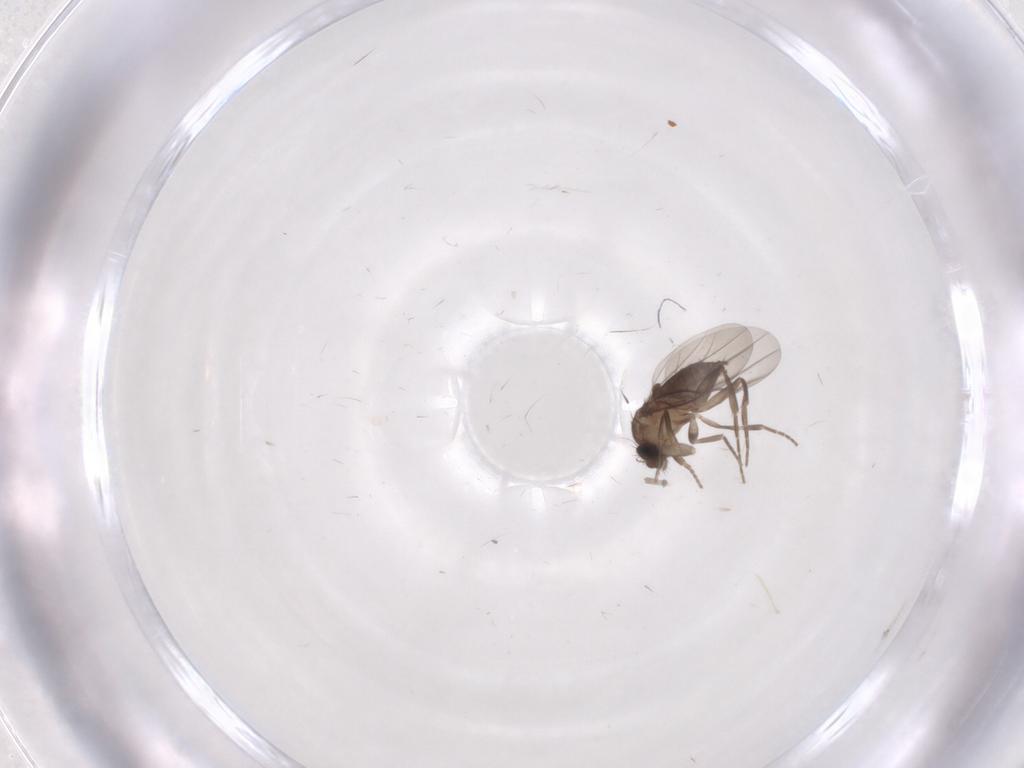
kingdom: Animalia
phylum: Arthropoda
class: Insecta
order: Diptera
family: Phoridae
